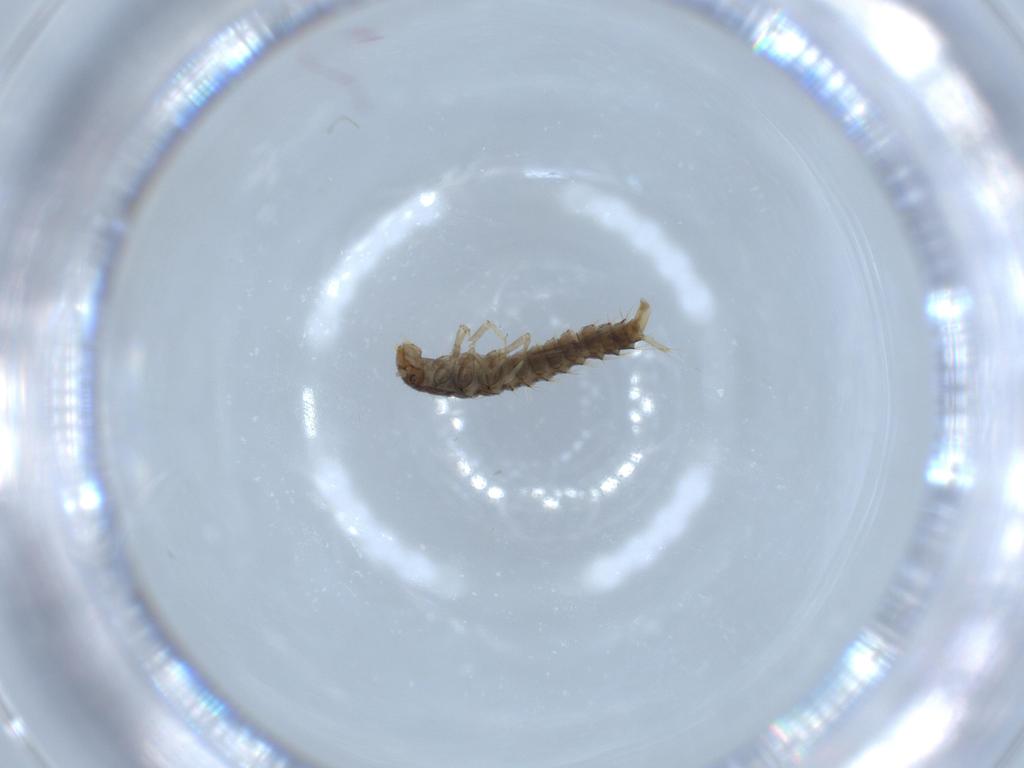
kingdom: Animalia
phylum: Arthropoda
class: Insecta
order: Coleoptera
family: Staphylinidae
